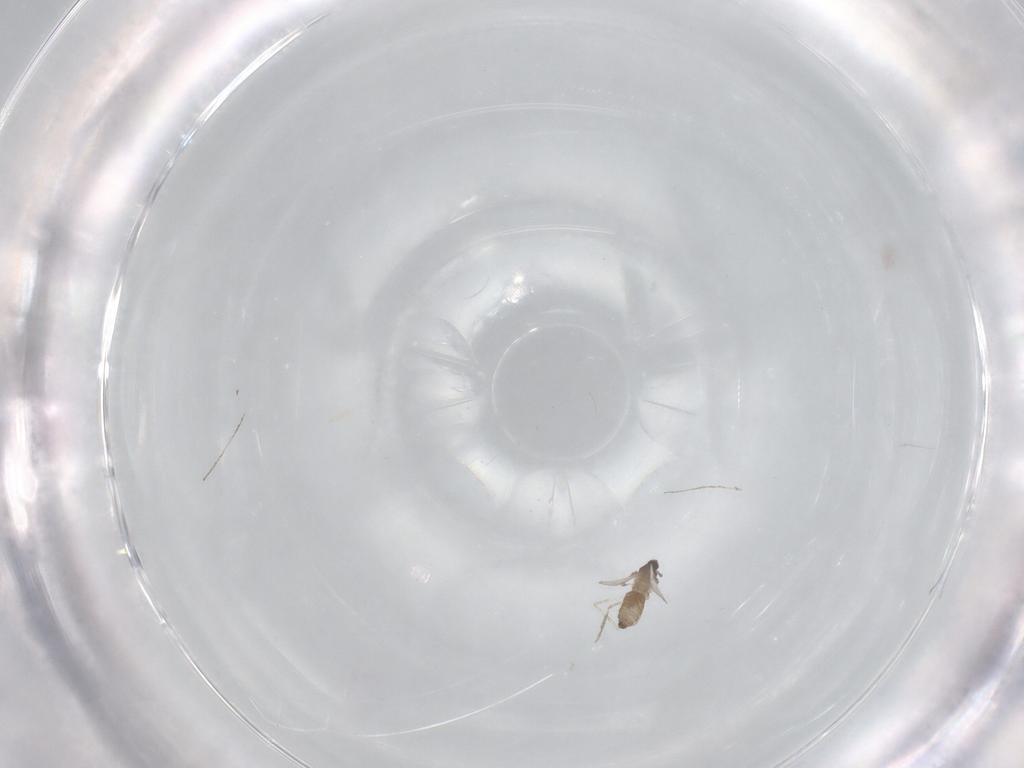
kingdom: Animalia
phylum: Arthropoda
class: Insecta
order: Diptera
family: Cecidomyiidae
